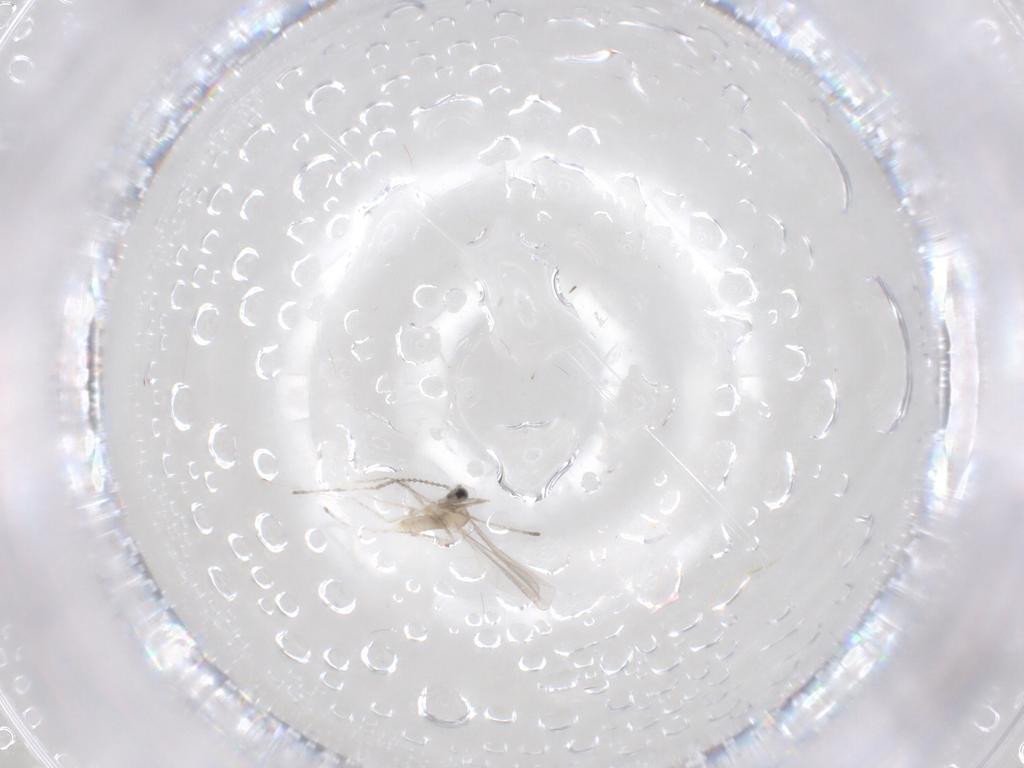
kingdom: Animalia
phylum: Arthropoda
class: Insecta
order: Diptera
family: Cecidomyiidae
